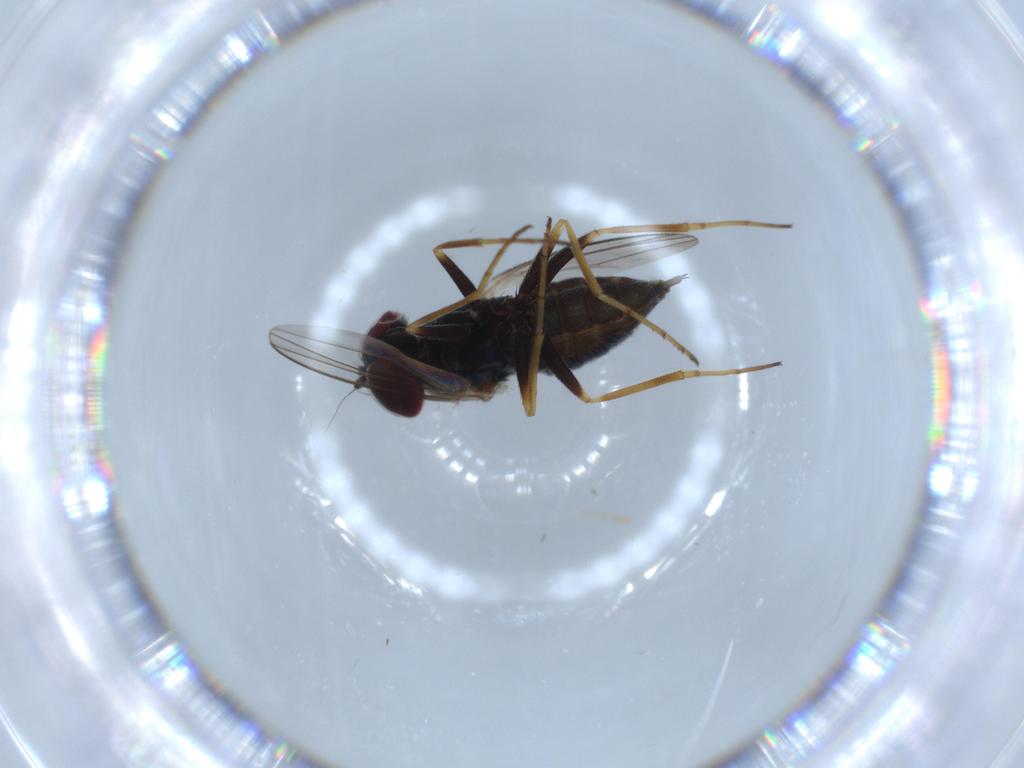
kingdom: Animalia
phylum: Arthropoda
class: Insecta
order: Diptera
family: Dolichopodidae
